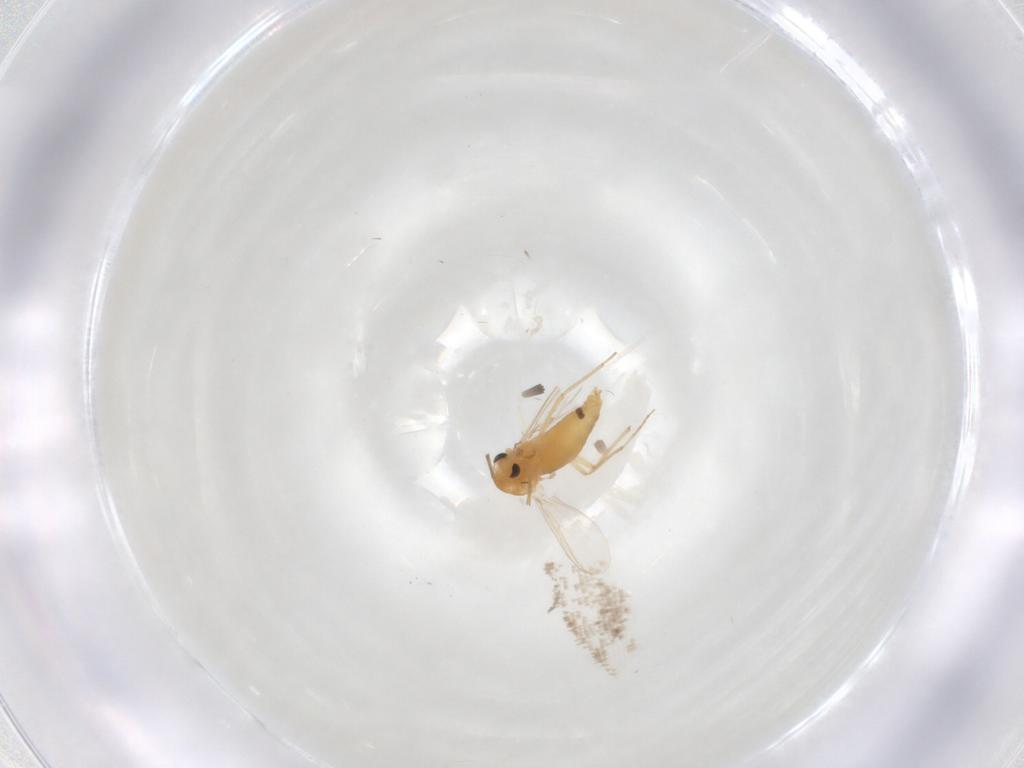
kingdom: Animalia
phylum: Arthropoda
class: Insecta
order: Diptera
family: Chironomidae
